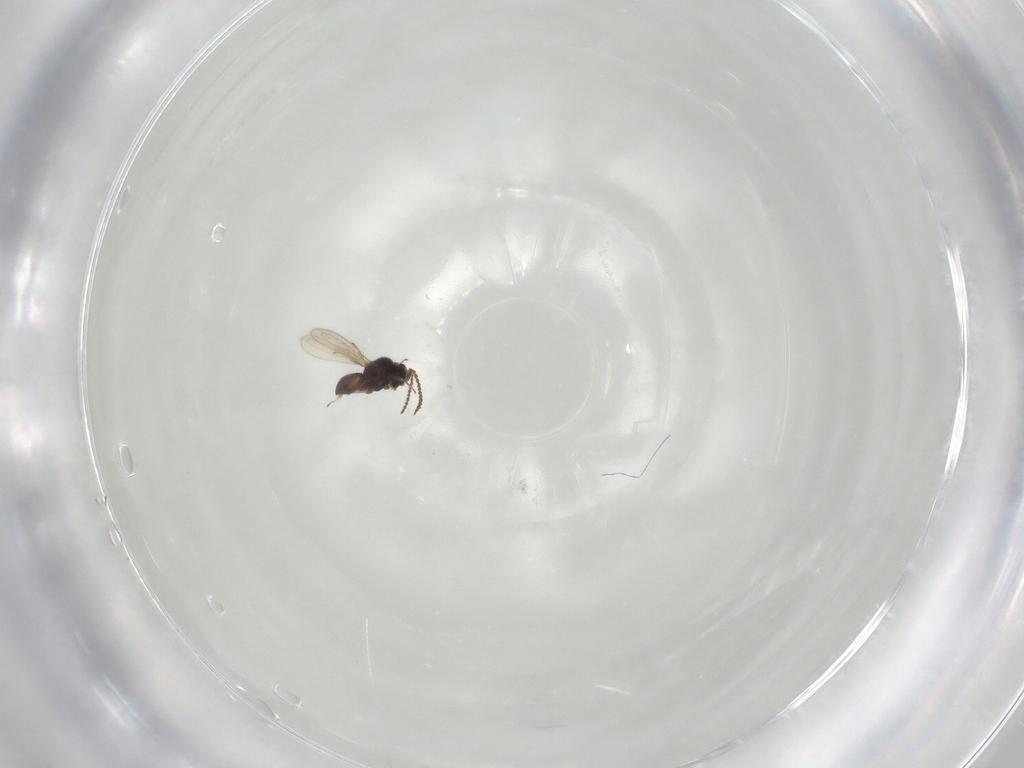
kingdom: Animalia
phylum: Arthropoda
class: Insecta
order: Hymenoptera
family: Scelionidae
